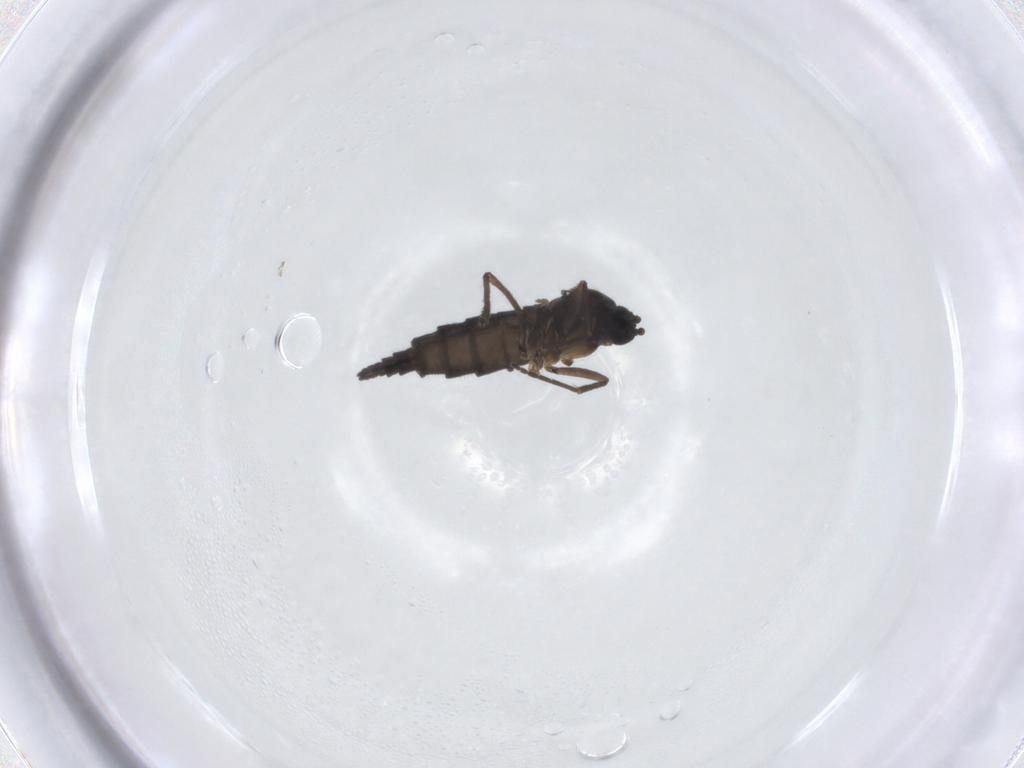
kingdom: Animalia
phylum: Arthropoda
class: Insecta
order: Diptera
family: Sciaridae
